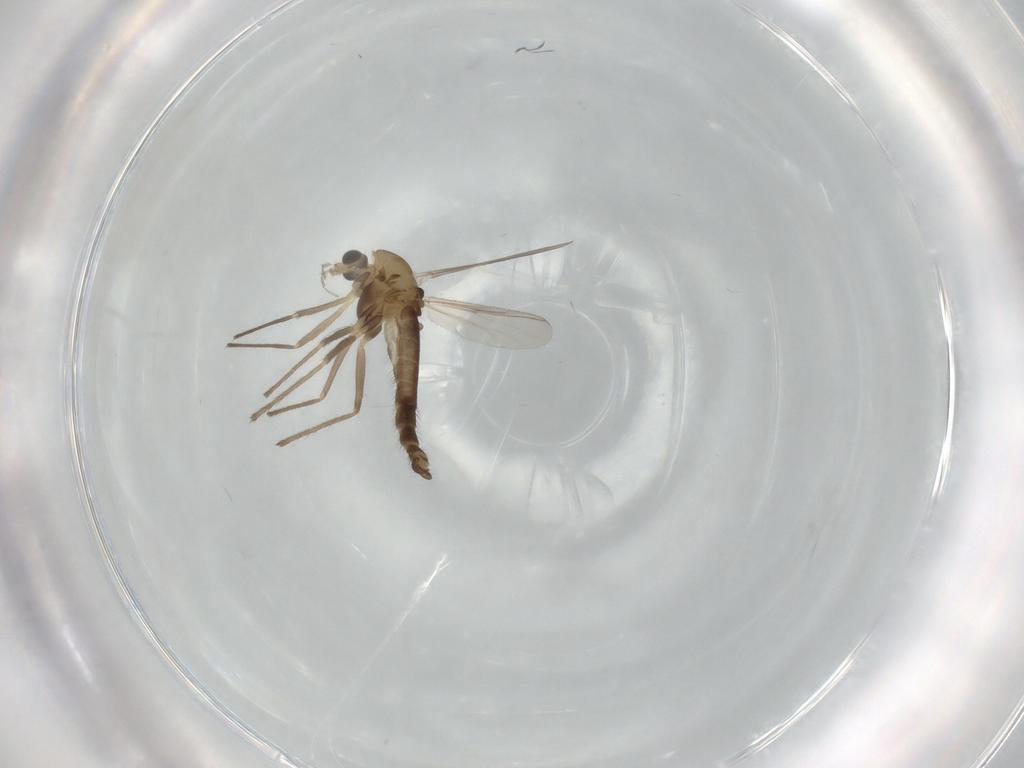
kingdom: Animalia
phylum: Arthropoda
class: Insecta
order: Diptera
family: Chironomidae
